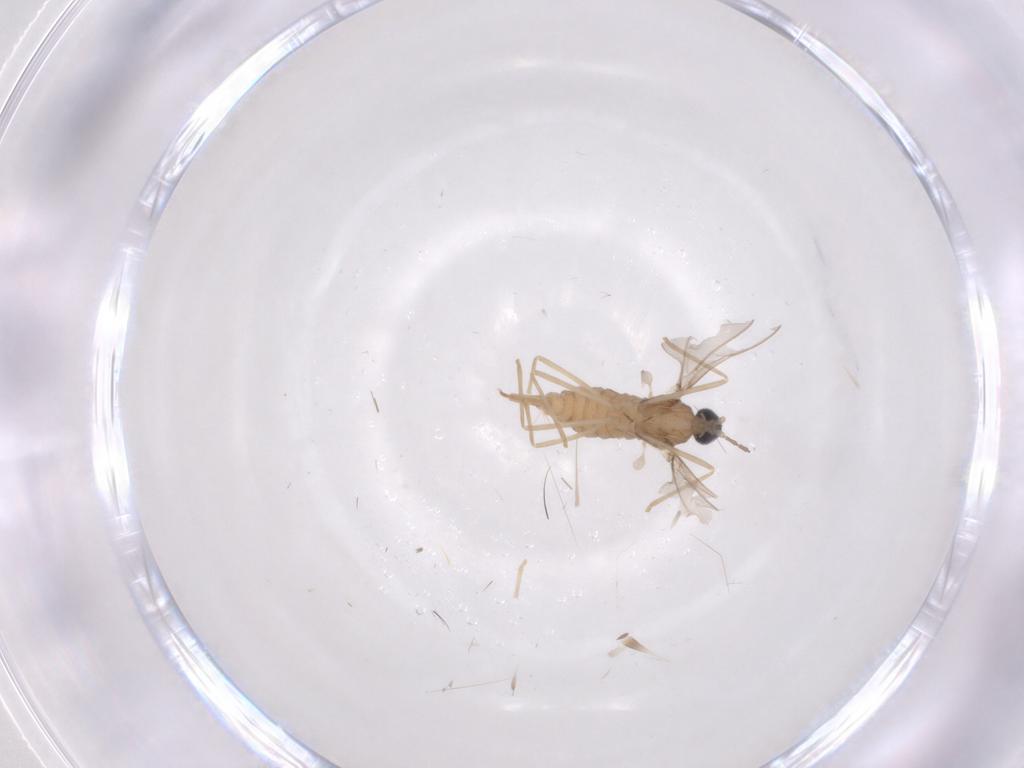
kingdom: Animalia
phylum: Arthropoda
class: Insecta
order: Diptera
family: Cecidomyiidae
